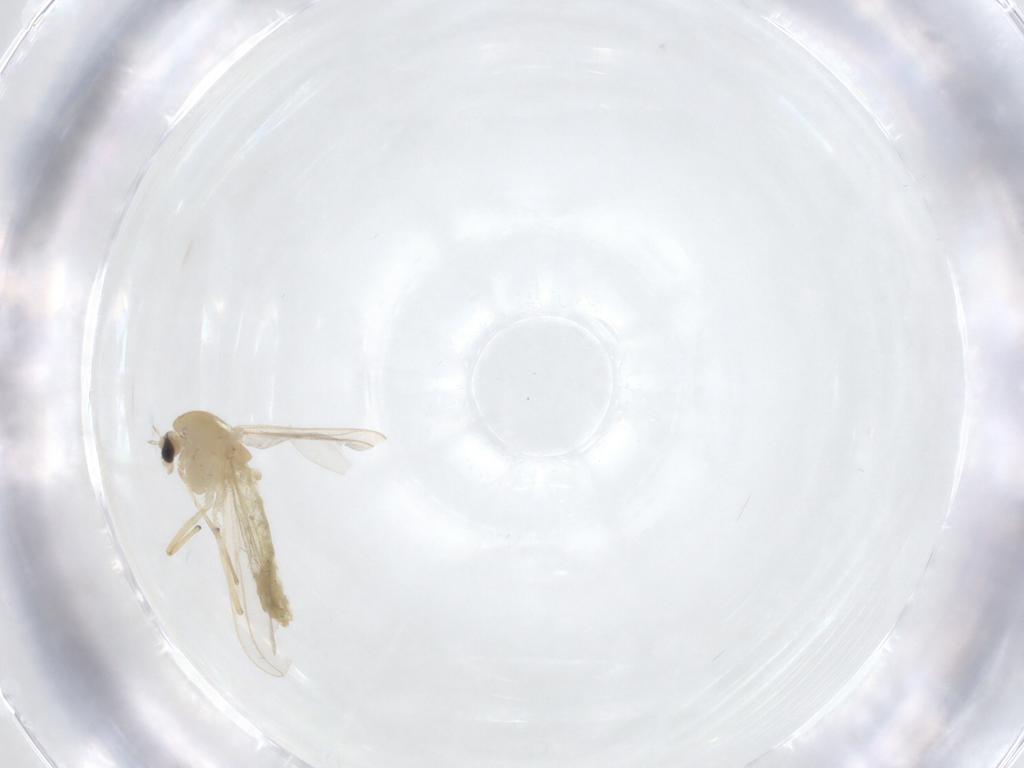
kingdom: Animalia
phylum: Arthropoda
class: Insecta
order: Diptera
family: Chironomidae
